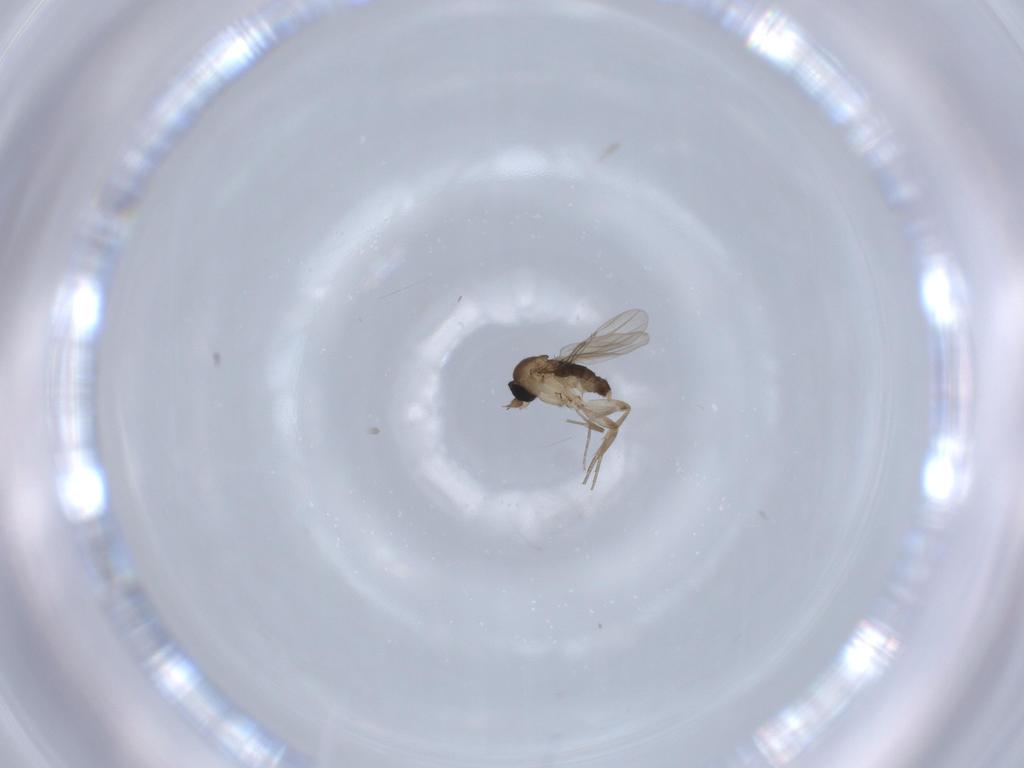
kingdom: Animalia
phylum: Arthropoda
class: Insecta
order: Diptera
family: Phoridae
